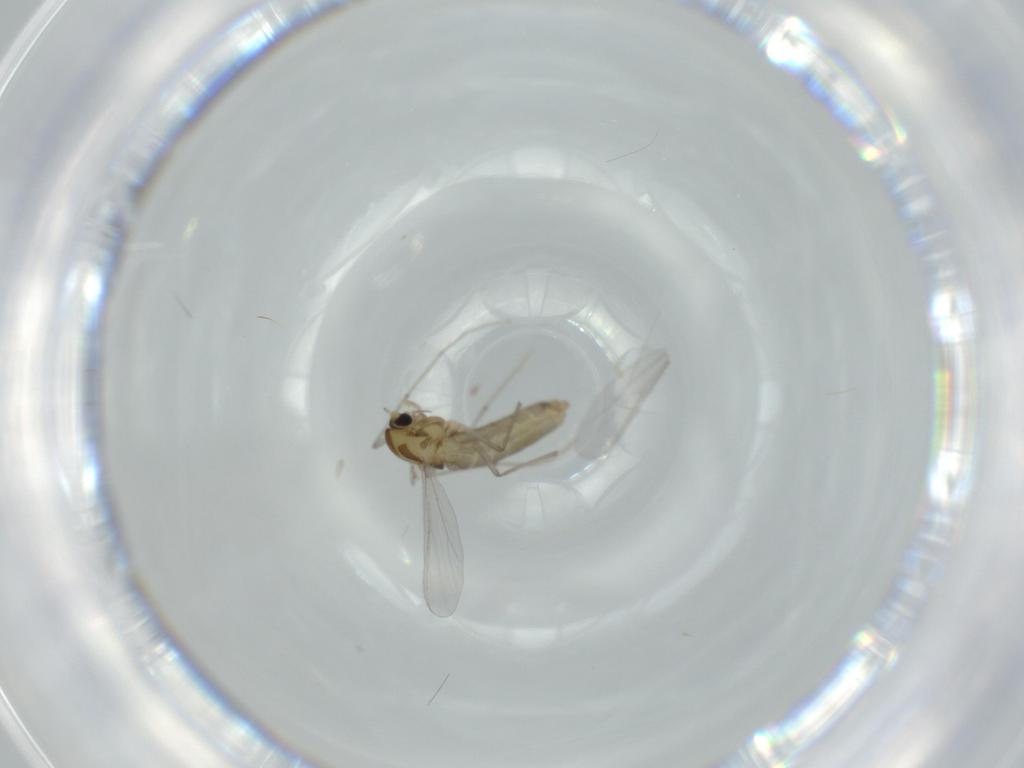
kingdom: Animalia
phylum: Arthropoda
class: Insecta
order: Diptera
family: Chironomidae
